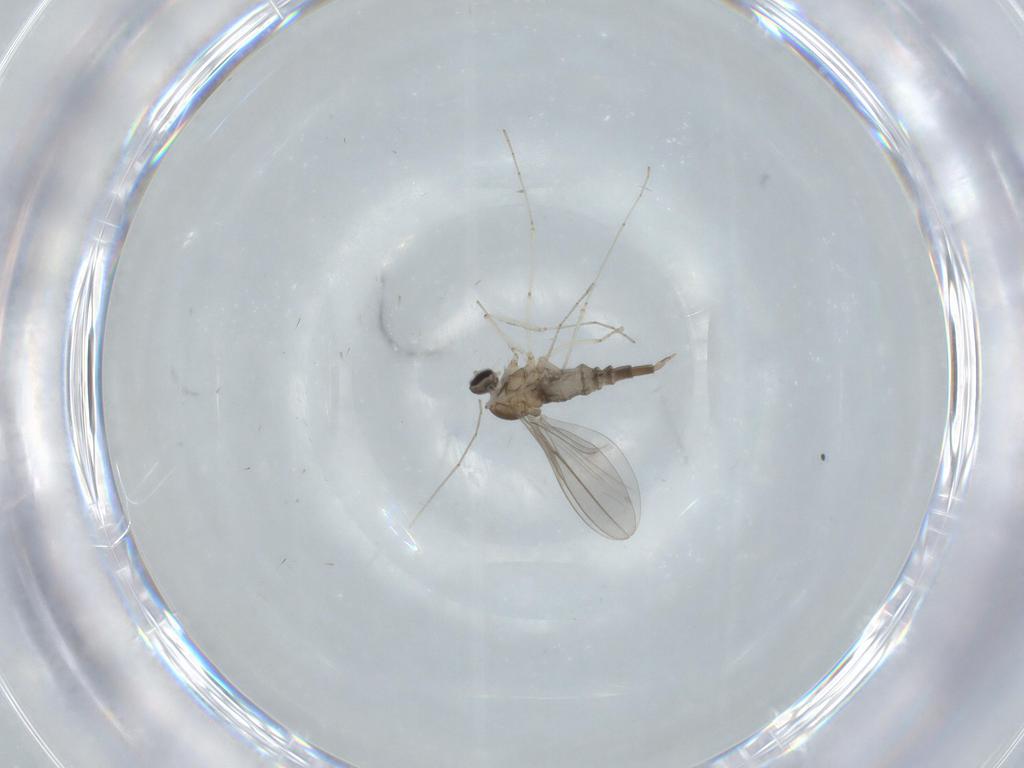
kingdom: Animalia
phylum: Arthropoda
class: Insecta
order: Diptera
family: Cecidomyiidae
